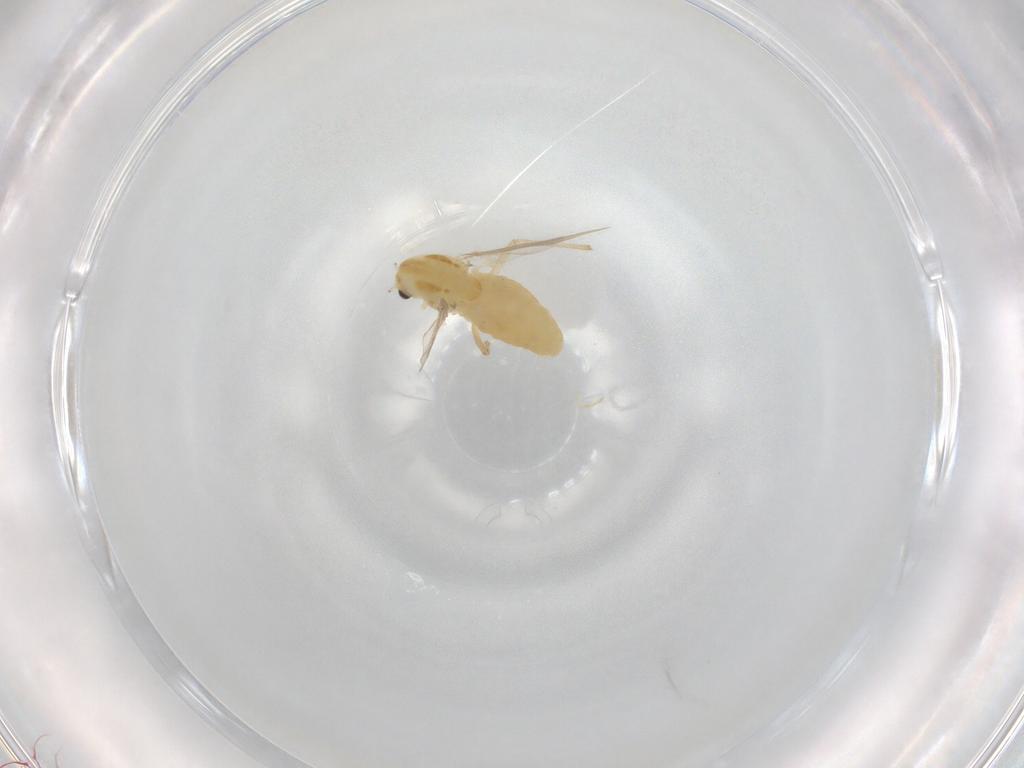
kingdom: Animalia
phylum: Arthropoda
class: Insecta
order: Diptera
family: Chironomidae
